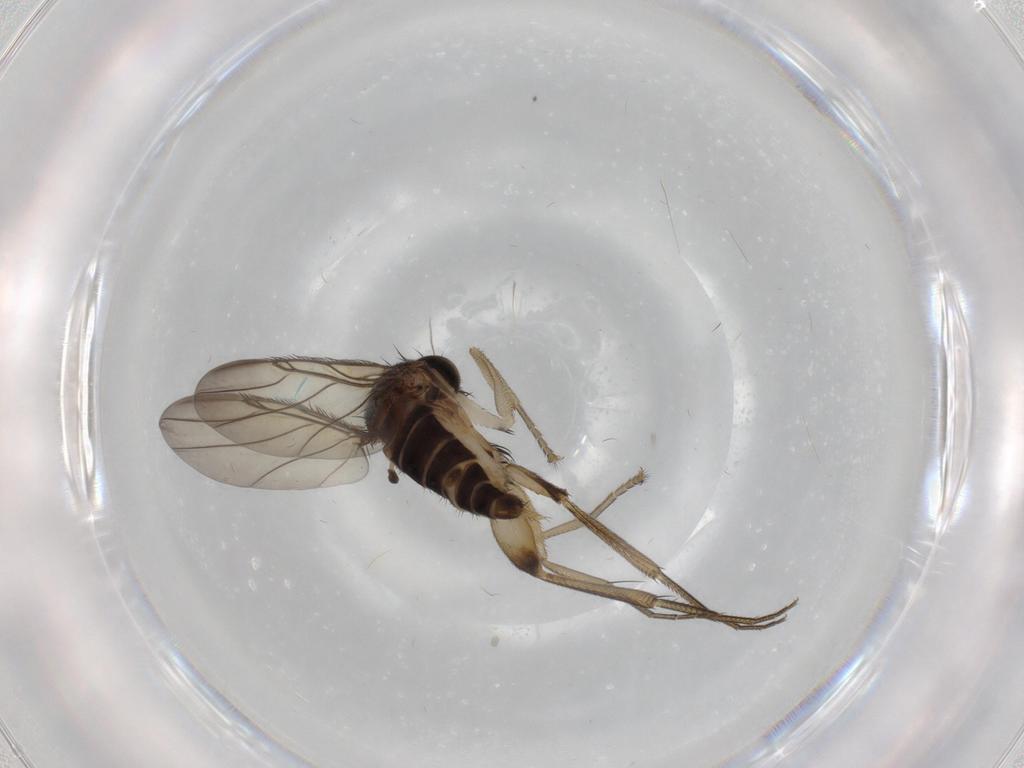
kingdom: Animalia
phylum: Arthropoda
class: Insecta
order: Diptera
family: Phoridae
